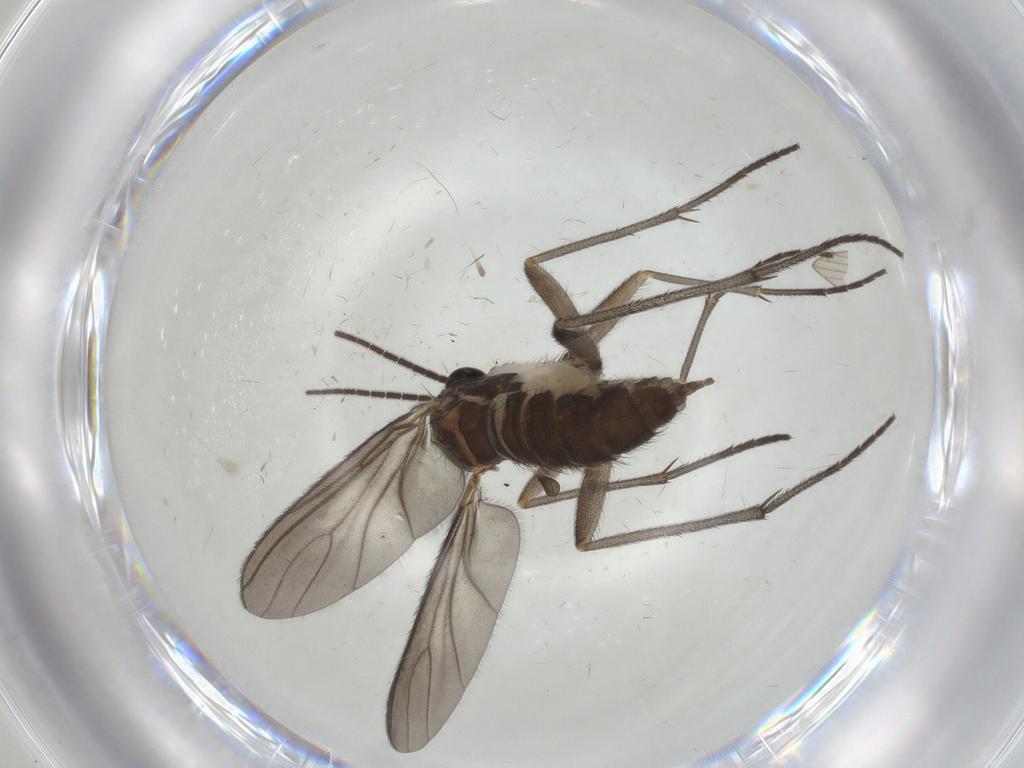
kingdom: Animalia
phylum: Arthropoda
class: Insecta
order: Diptera
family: Sciaridae
